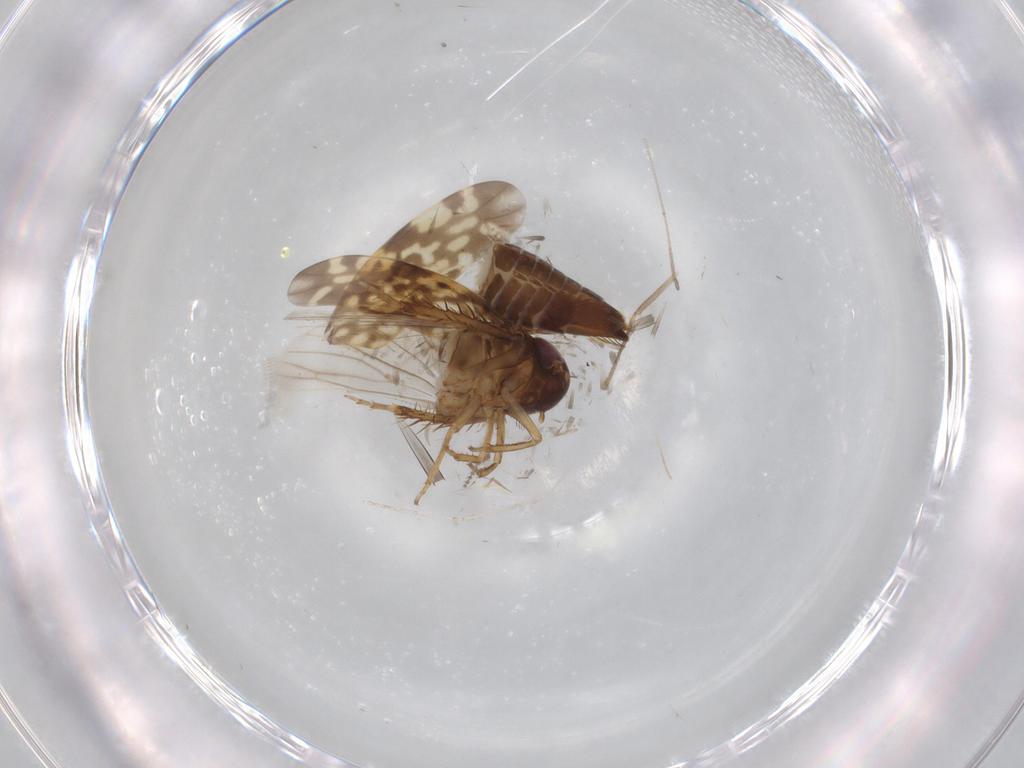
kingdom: Animalia
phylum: Arthropoda
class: Insecta
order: Hemiptera
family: Cicadellidae
